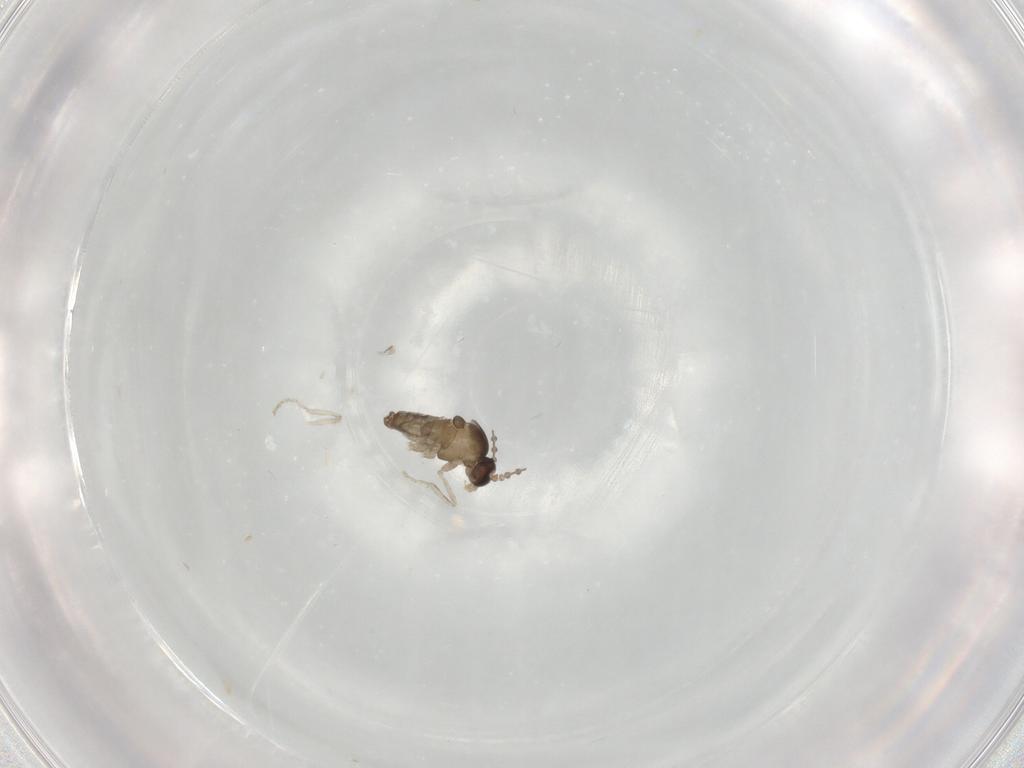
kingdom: Animalia
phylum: Arthropoda
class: Insecta
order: Diptera
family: Cecidomyiidae
